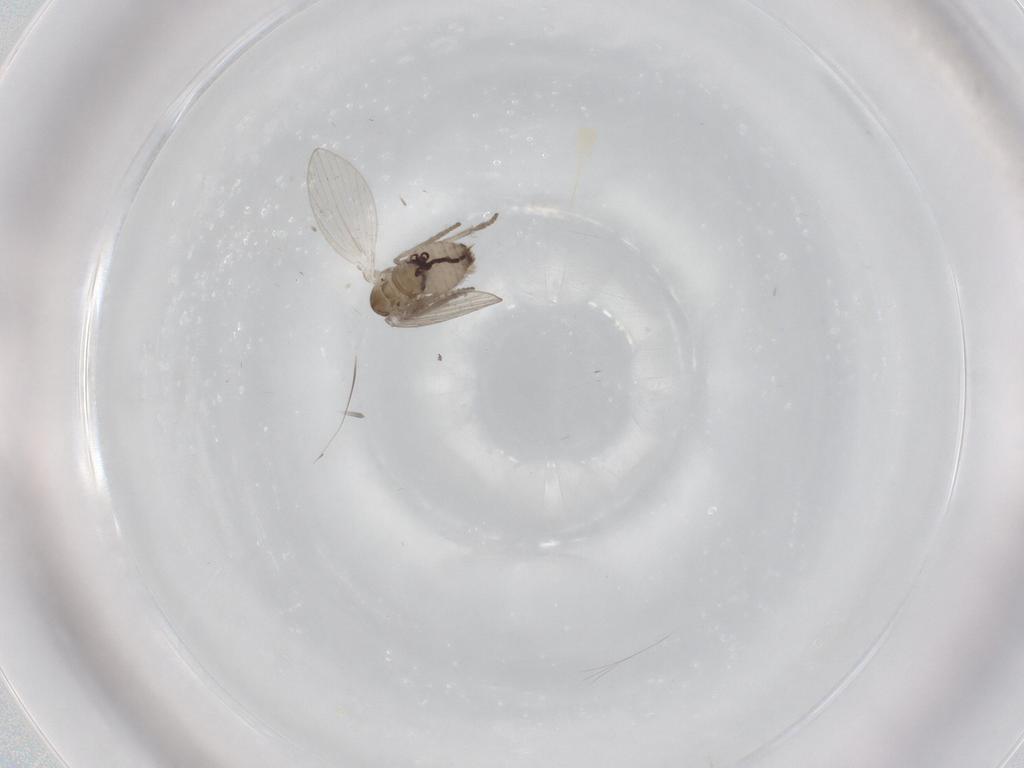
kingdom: Animalia
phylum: Arthropoda
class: Insecta
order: Diptera
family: Psychodidae
